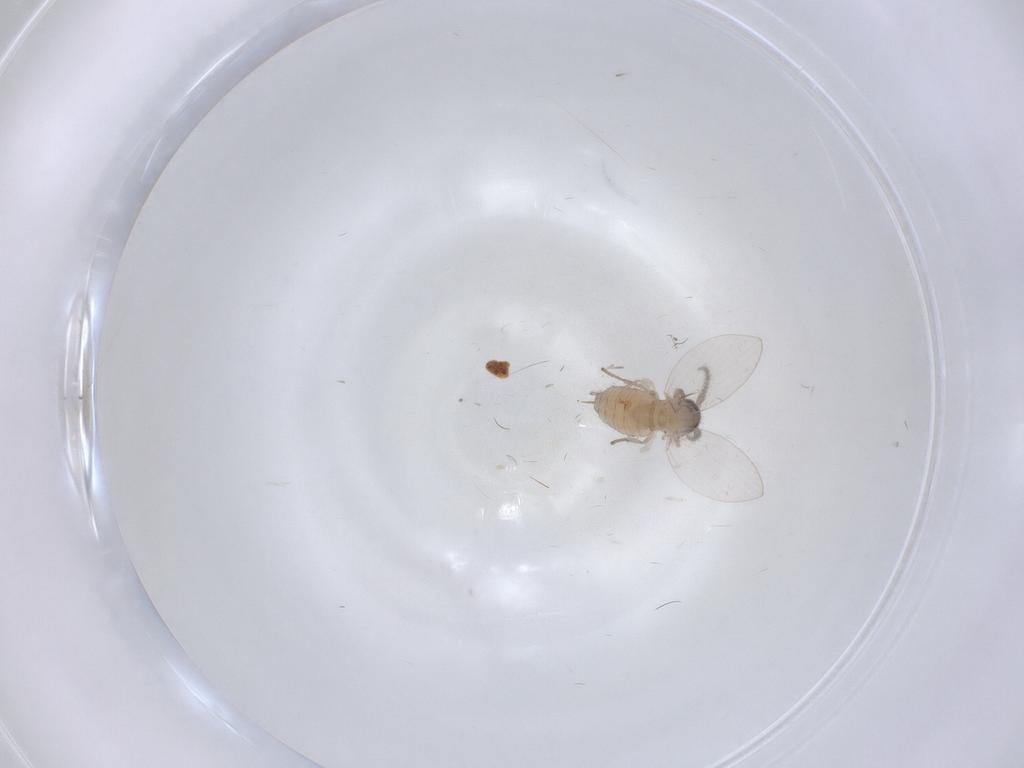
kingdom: Animalia
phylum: Arthropoda
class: Insecta
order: Diptera
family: Psychodidae
